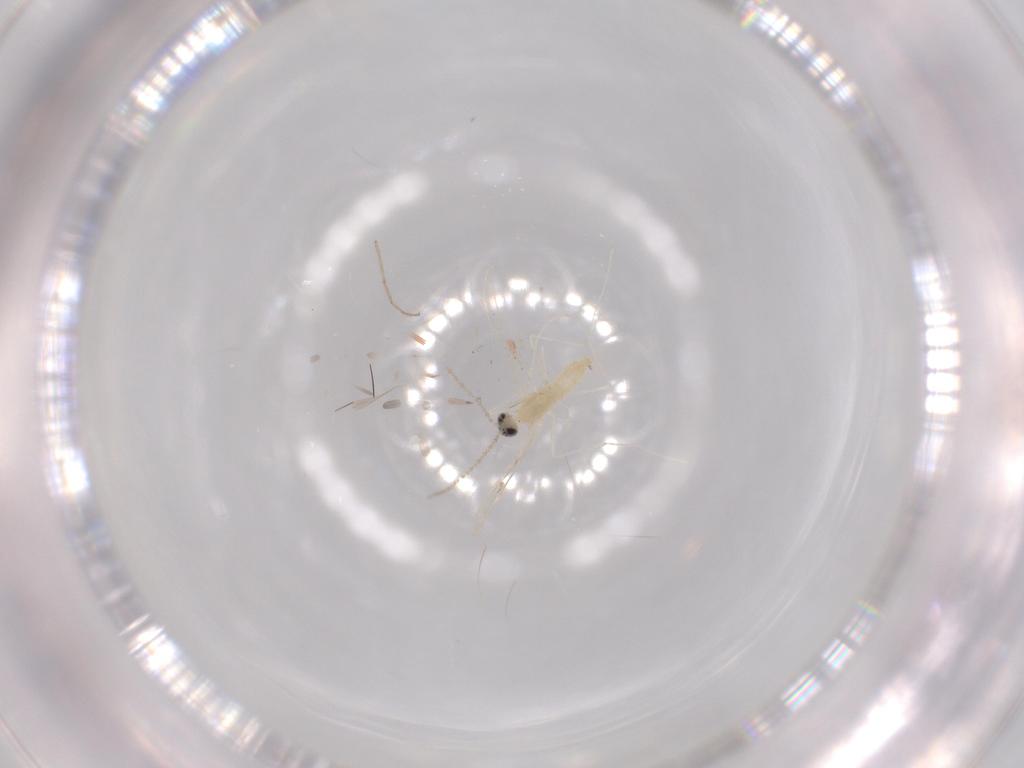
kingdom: Animalia
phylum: Arthropoda
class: Insecta
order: Diptera
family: Cecidomyiidae
